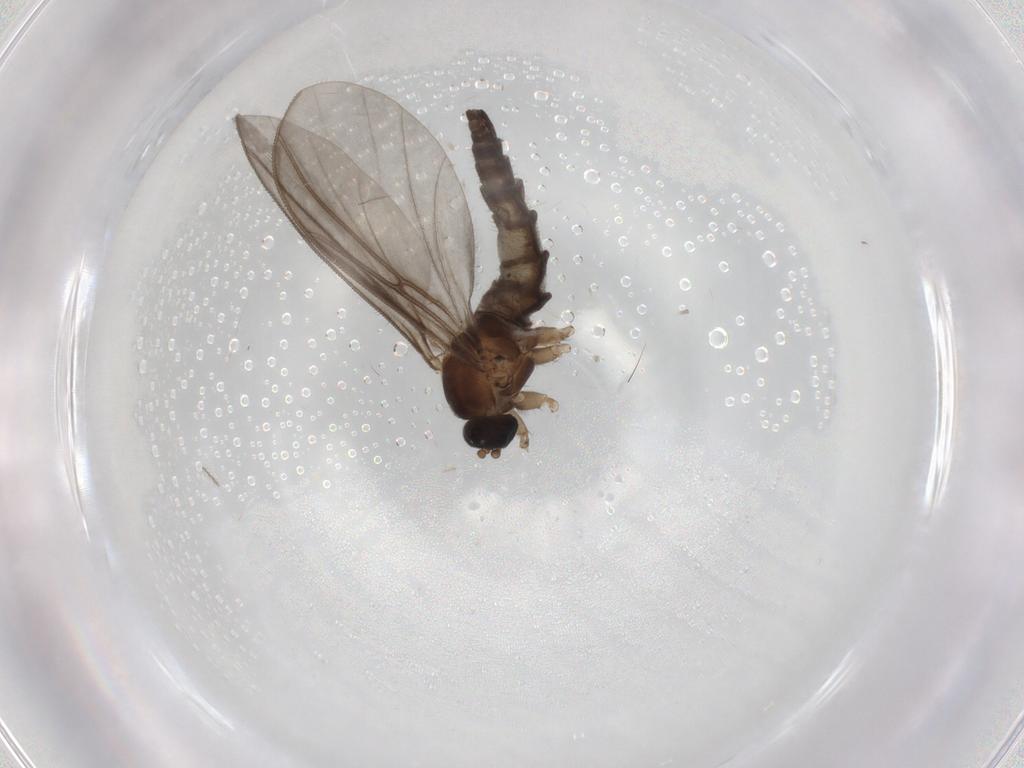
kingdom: Animalia
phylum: Arthropoda
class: Insecta
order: Diptera
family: Sciaridae
